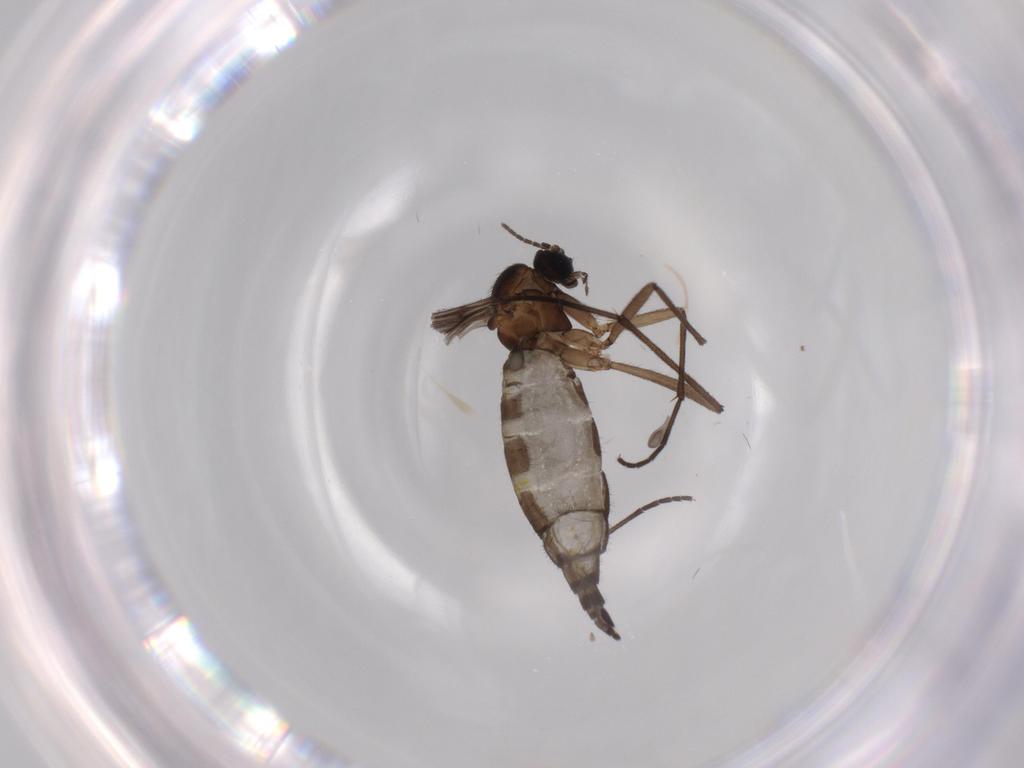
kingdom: Animalia
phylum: Arthropoda
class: Insecta
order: Diptera
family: Sciaridae
